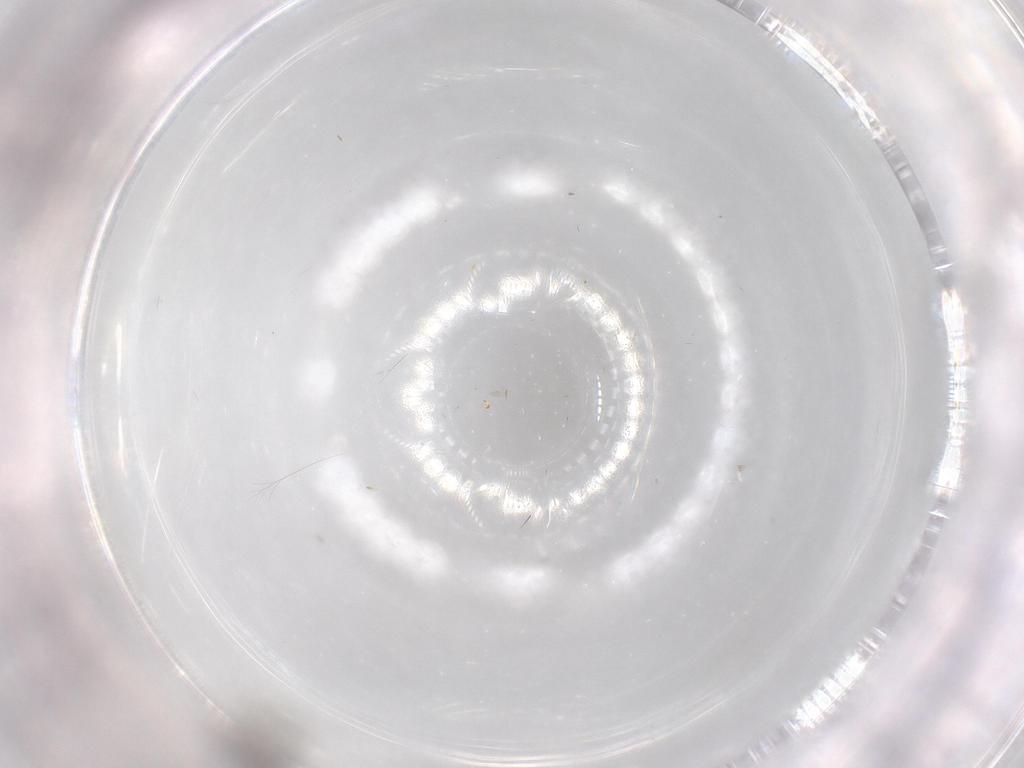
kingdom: Animalia
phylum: Arthropoda
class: Insecta
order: Hymenoptera
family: Scelionidae
